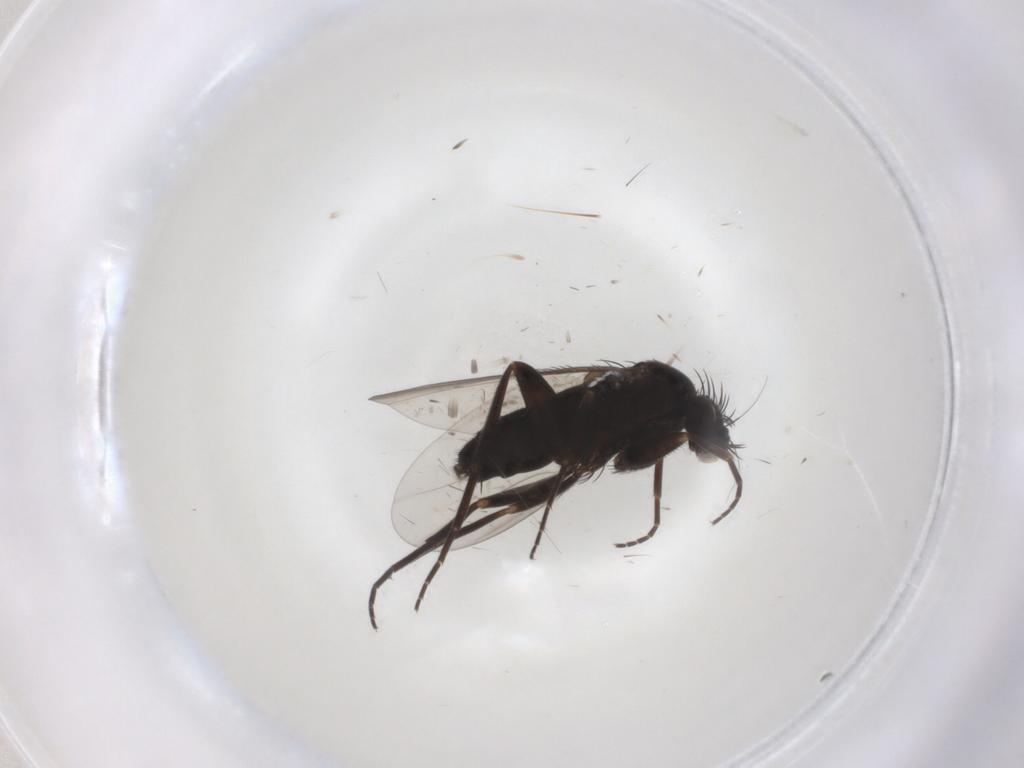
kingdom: Animalia
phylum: Arthropoda
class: Insecta
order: Diptera
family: Phoridae
